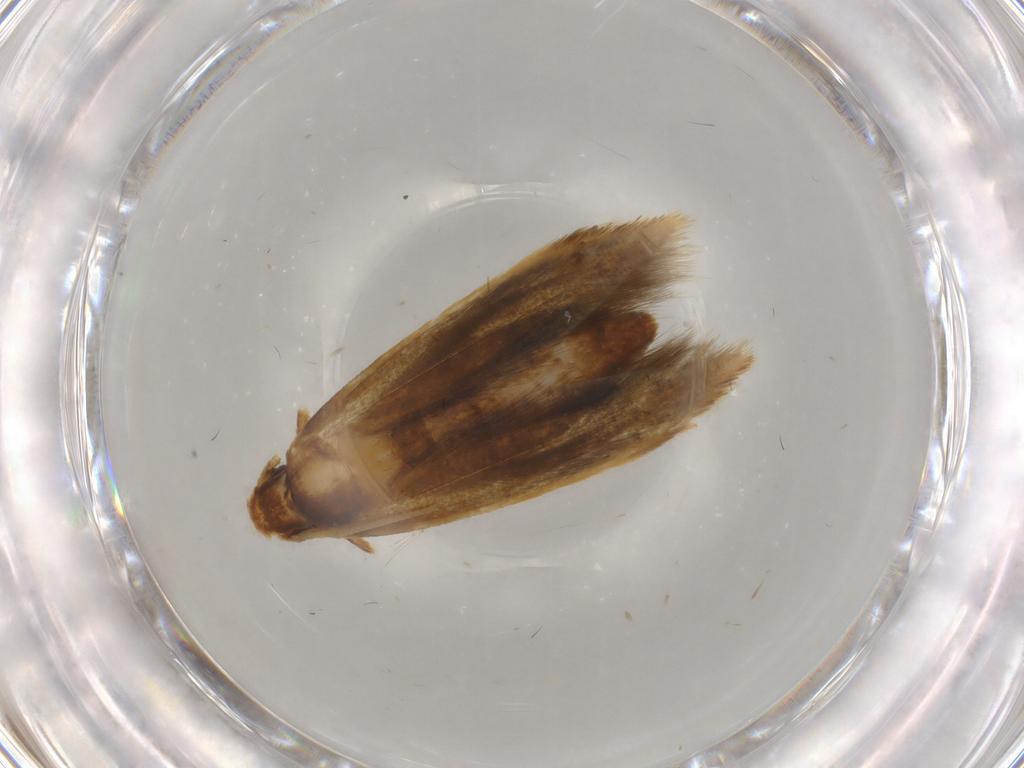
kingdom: Animalia
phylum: Arthropoda
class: Insecta
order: Lepidoptera
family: Tineidae
